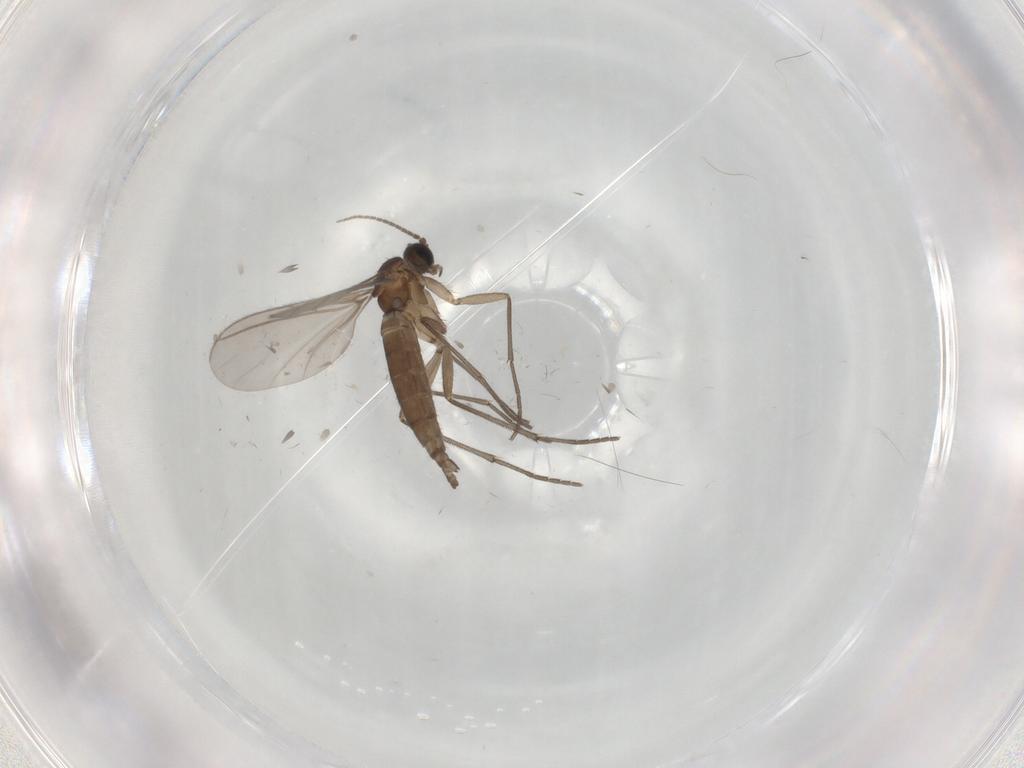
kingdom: Animalia
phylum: Arthropoda
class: Insecta
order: Diptera
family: Sciaridae
